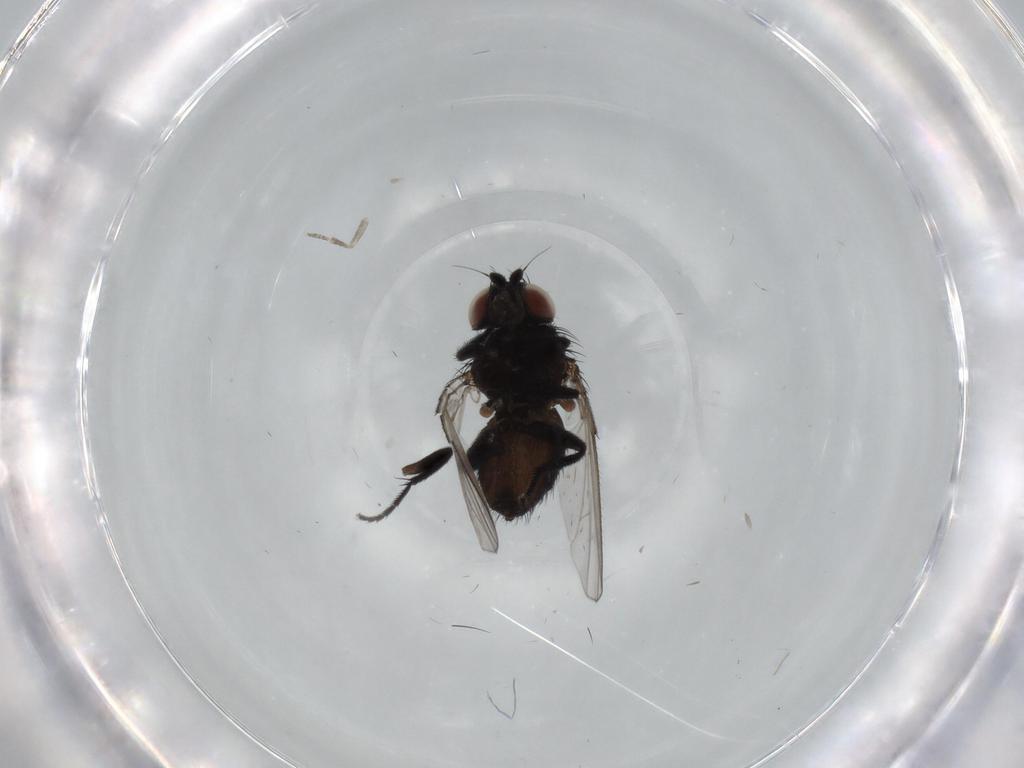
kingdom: Animalia
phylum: Arthropoda
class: Insecta
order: Diptera
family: Milichiidae
